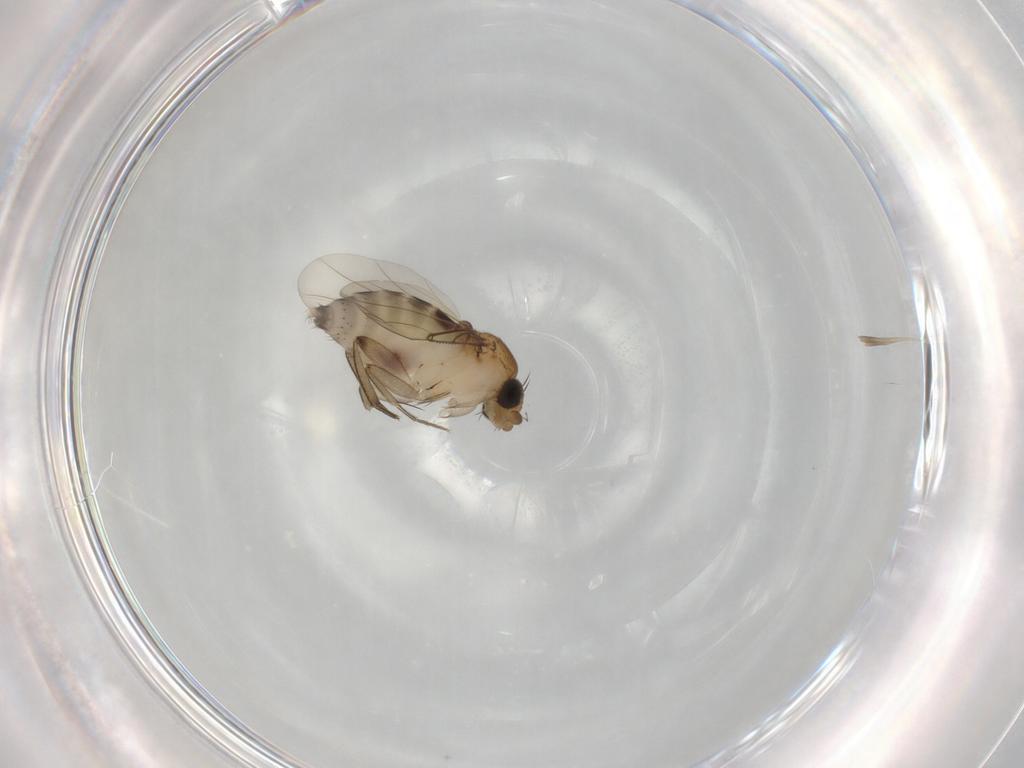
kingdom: Animalia
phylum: Arthropoda
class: Insecta
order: Diptera
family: Phoridae
